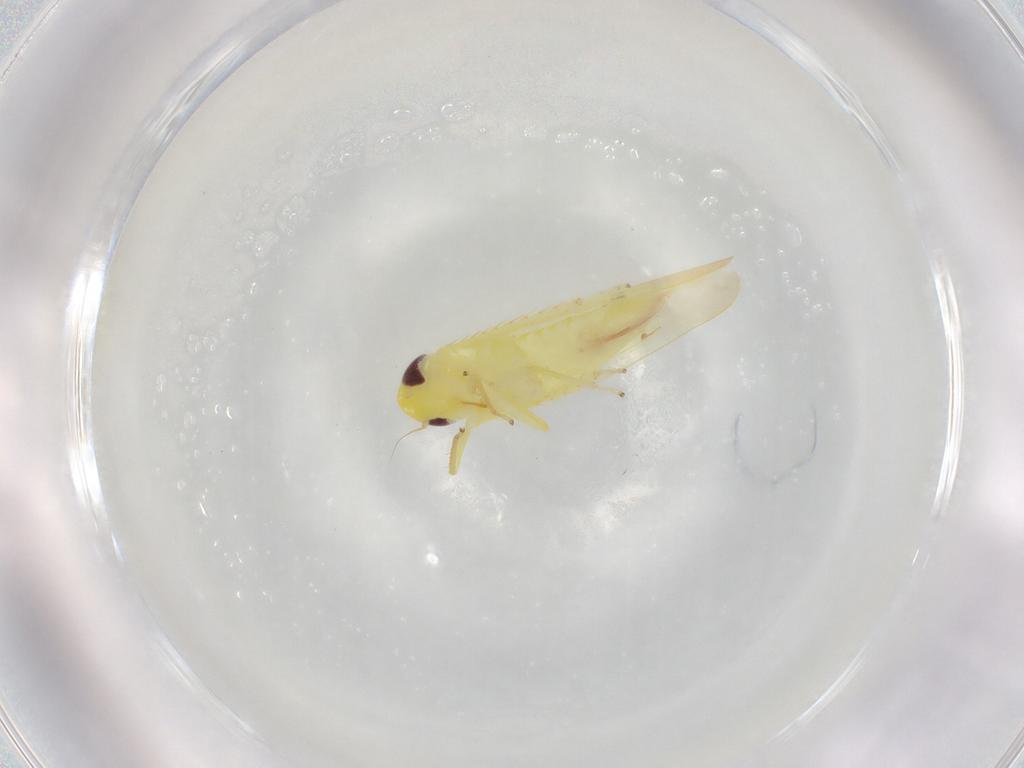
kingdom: Animalia
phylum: Arthropoda
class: Insecta
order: Hemiptera
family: Cicadellidae
